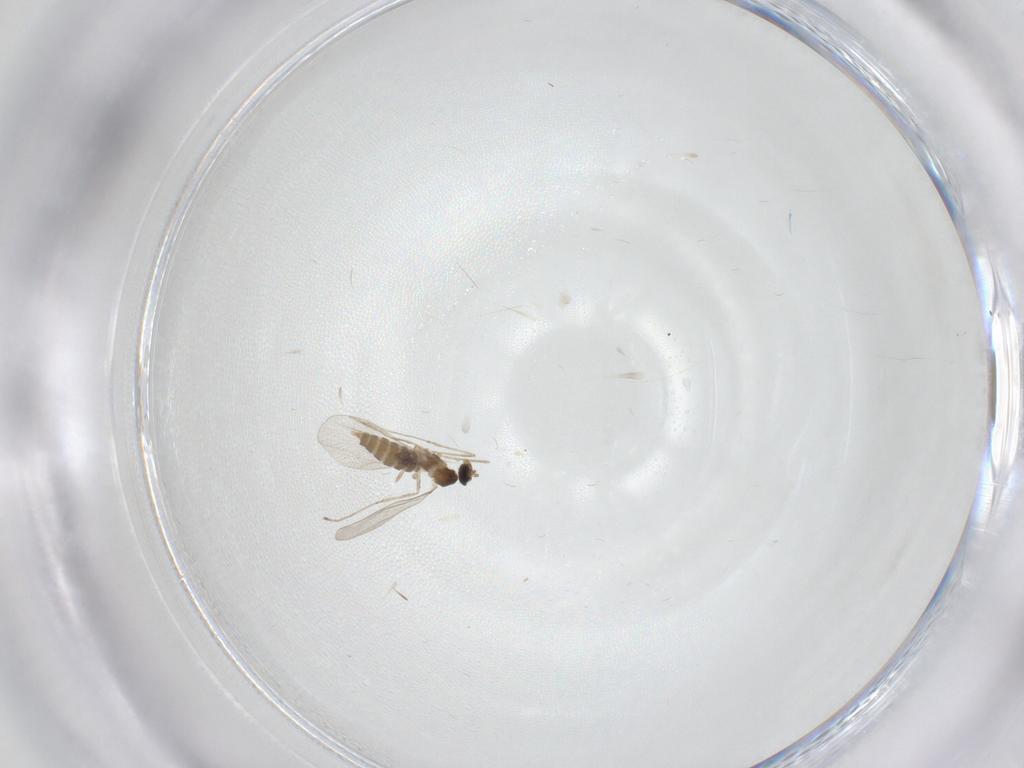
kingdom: Animalia
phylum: Arthropoda
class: Insecta
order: Diptera
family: Cecidomyiidae
